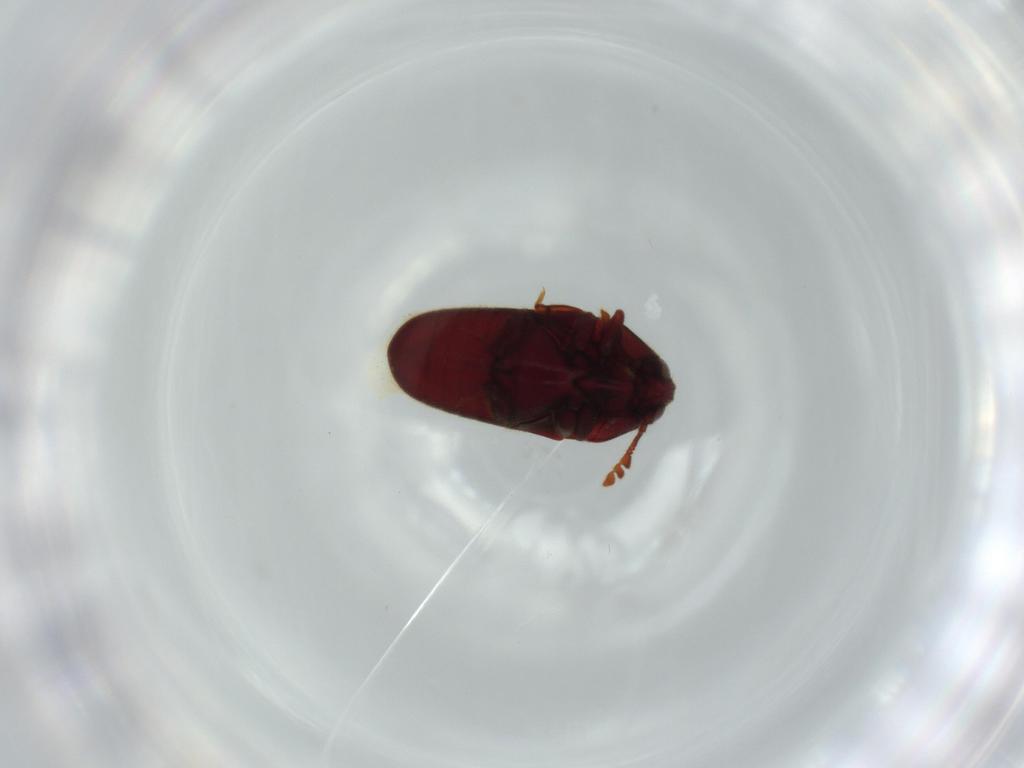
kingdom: Animalia
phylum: Arthropoda
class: Insecta
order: Coleoptera
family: Throscidae
